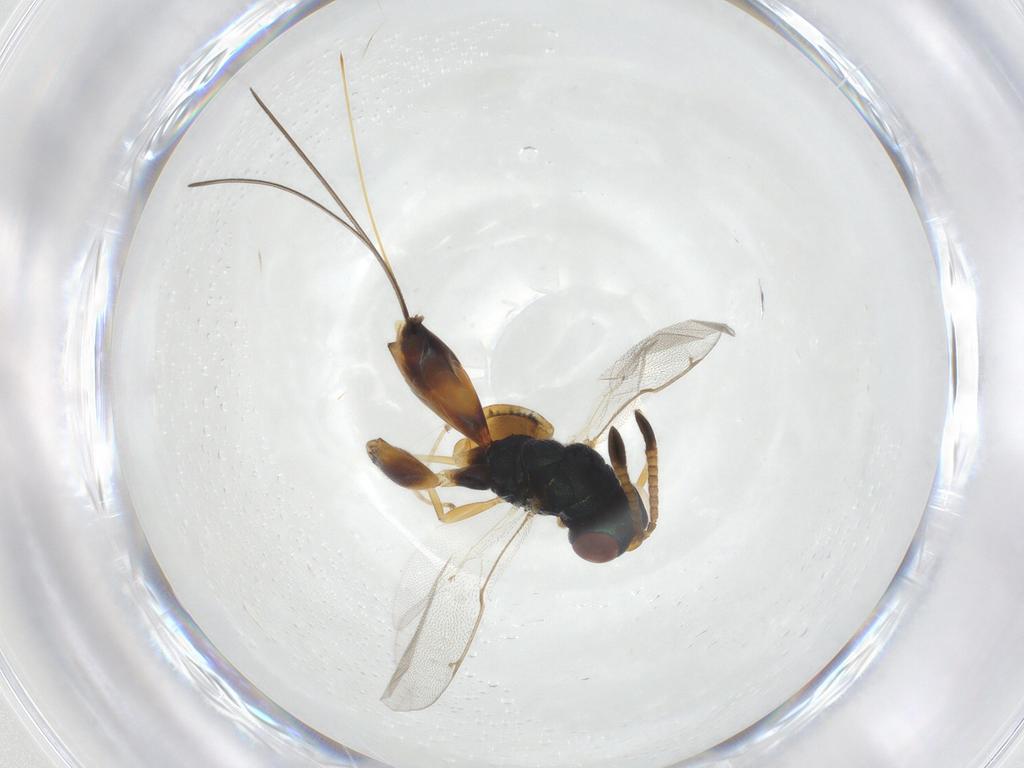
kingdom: Animalia
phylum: Arthropoda
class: Insecta
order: Hymenoptera
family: Torymidae
